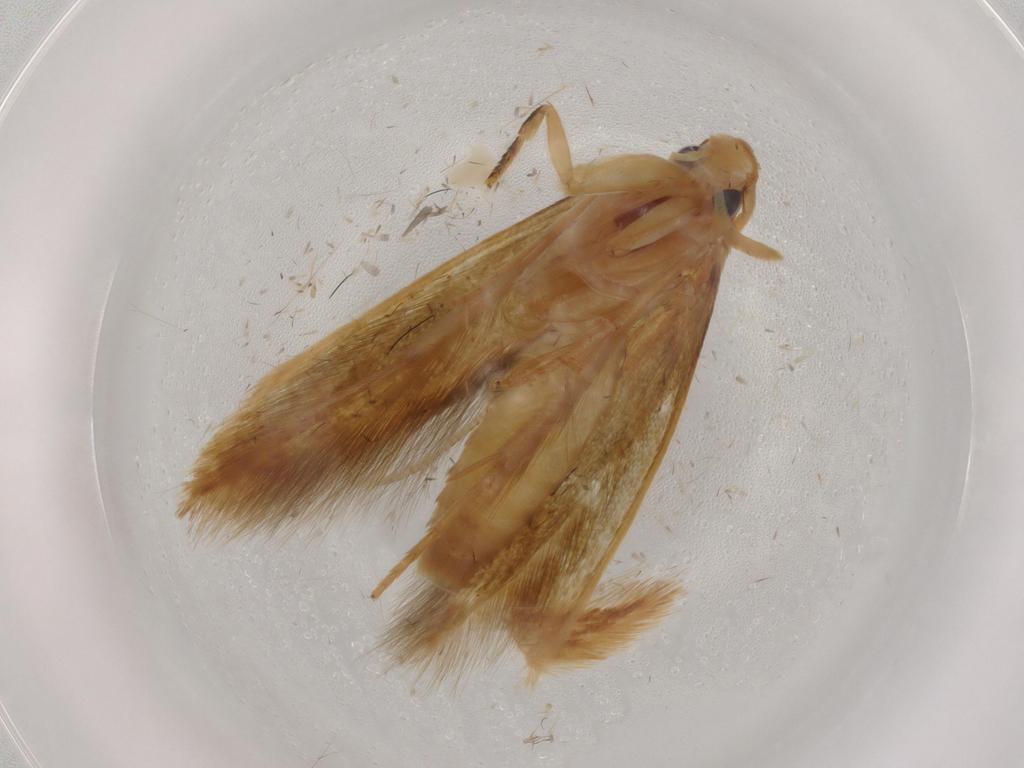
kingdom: Animalia
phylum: Arthropoda
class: Insecta
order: Lepidoptera
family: Tineidae
